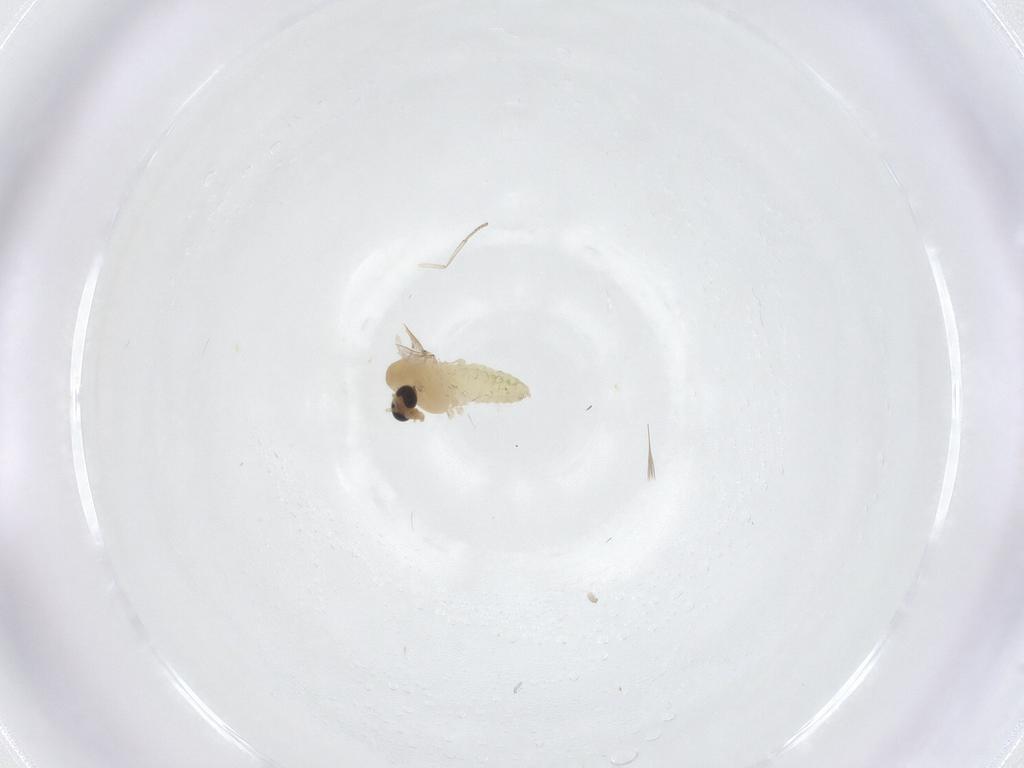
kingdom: Animalia
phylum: Arthropoda
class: Insecta
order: Diptera
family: Chironomidae
